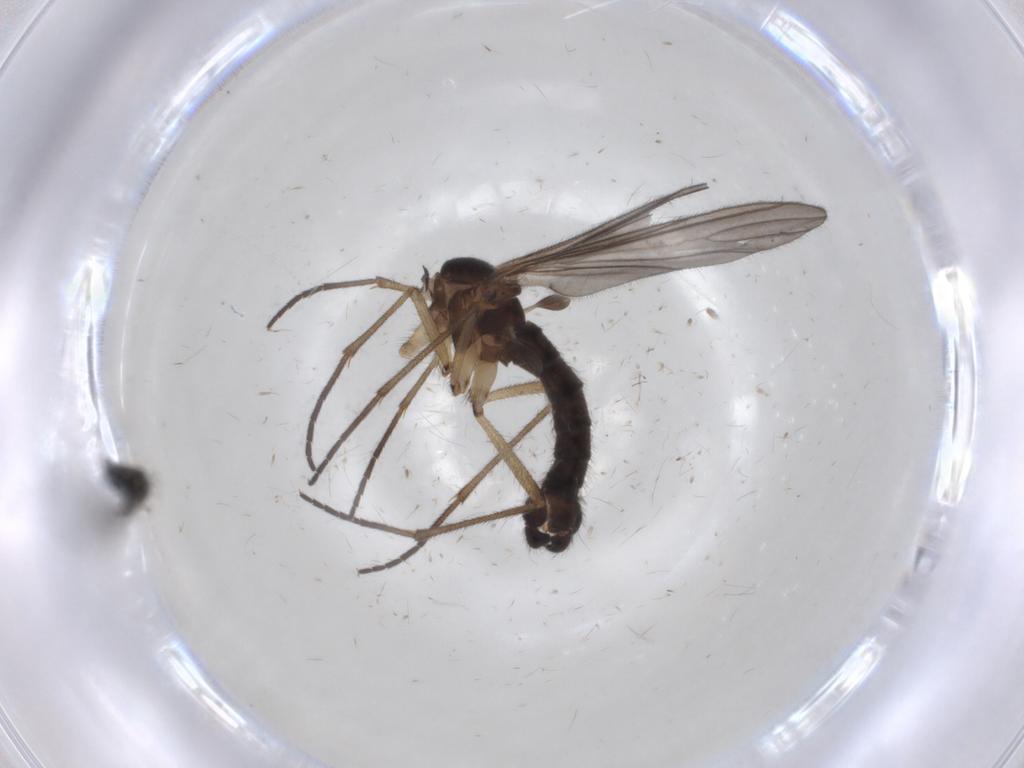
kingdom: Animalia
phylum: Arthropoda
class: Insecta
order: Diptera
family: Sciaridae
